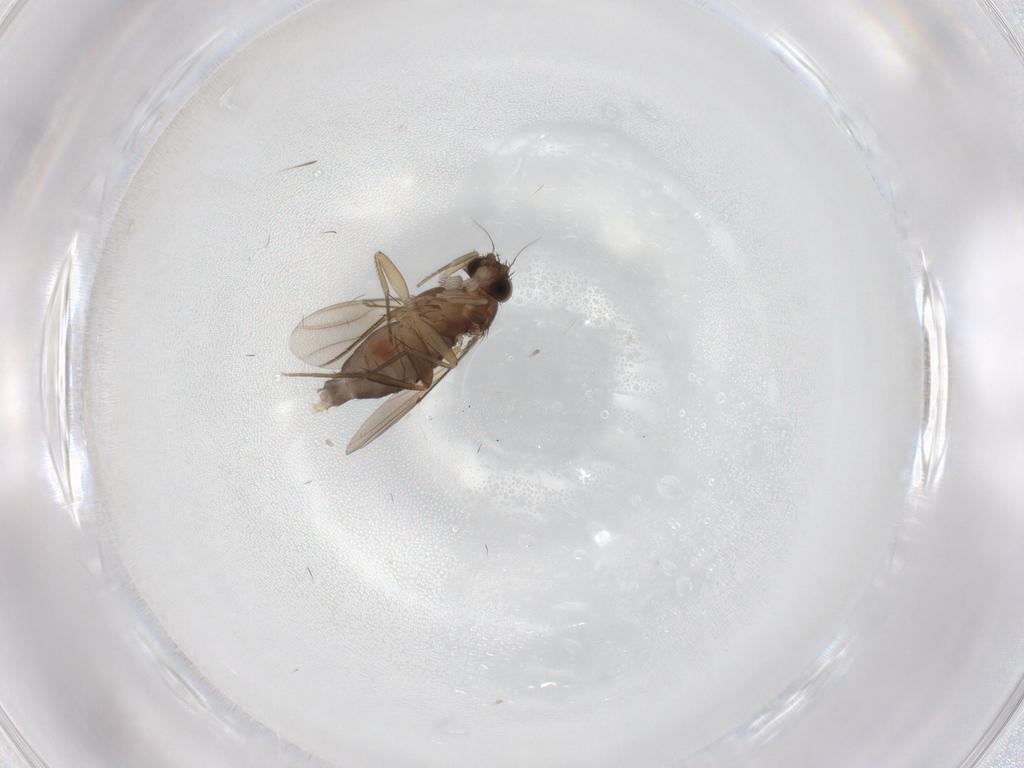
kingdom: Animalia
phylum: Arthropoda
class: Insecta
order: Diptera
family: Phoridae
